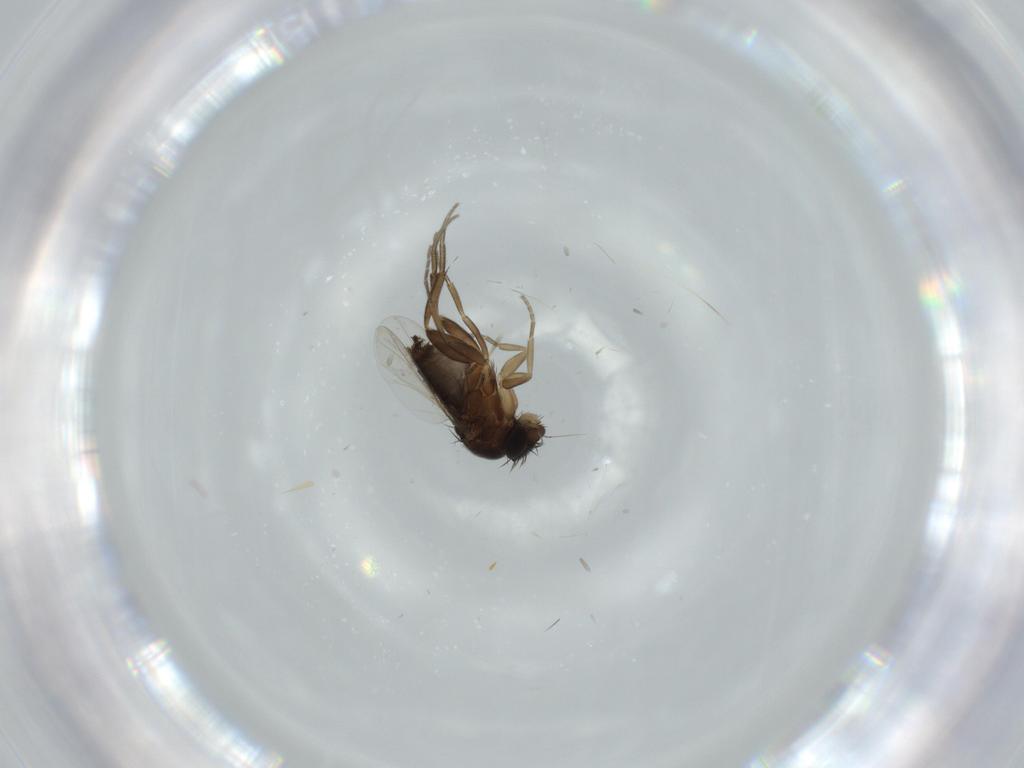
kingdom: Animalia
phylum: Arthropoda
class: Insecta
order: Diptera
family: Phoridae
